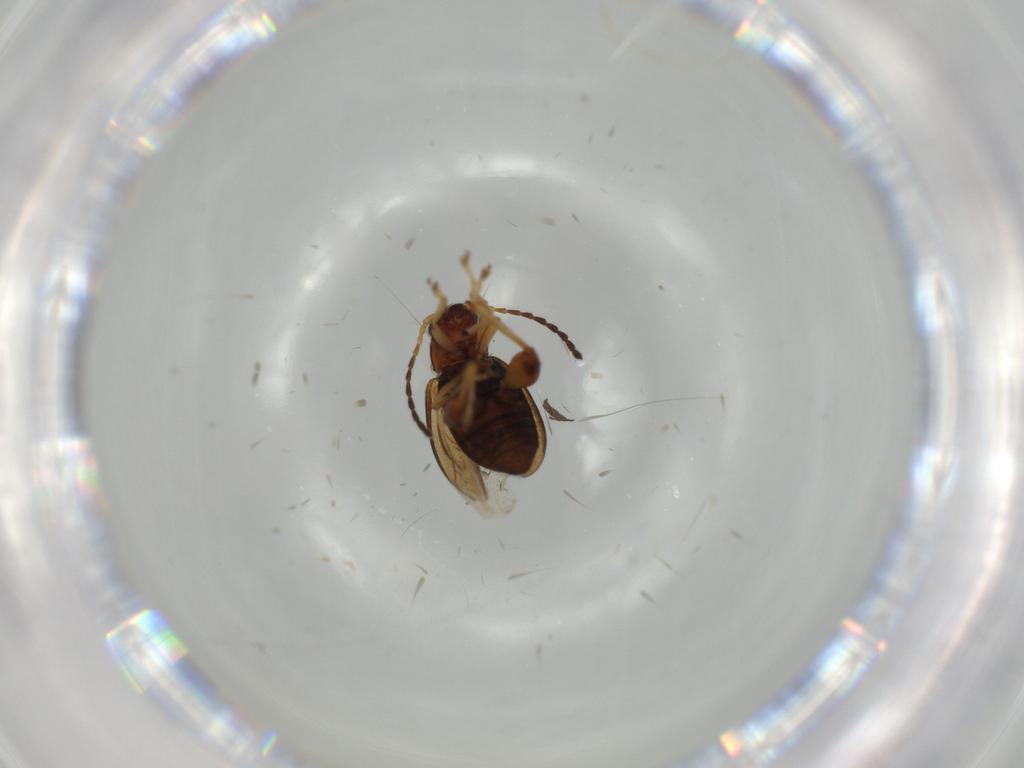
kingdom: Animalia
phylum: Arthropoda
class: Insecta
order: Coleoptera
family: Chrysomelidae
